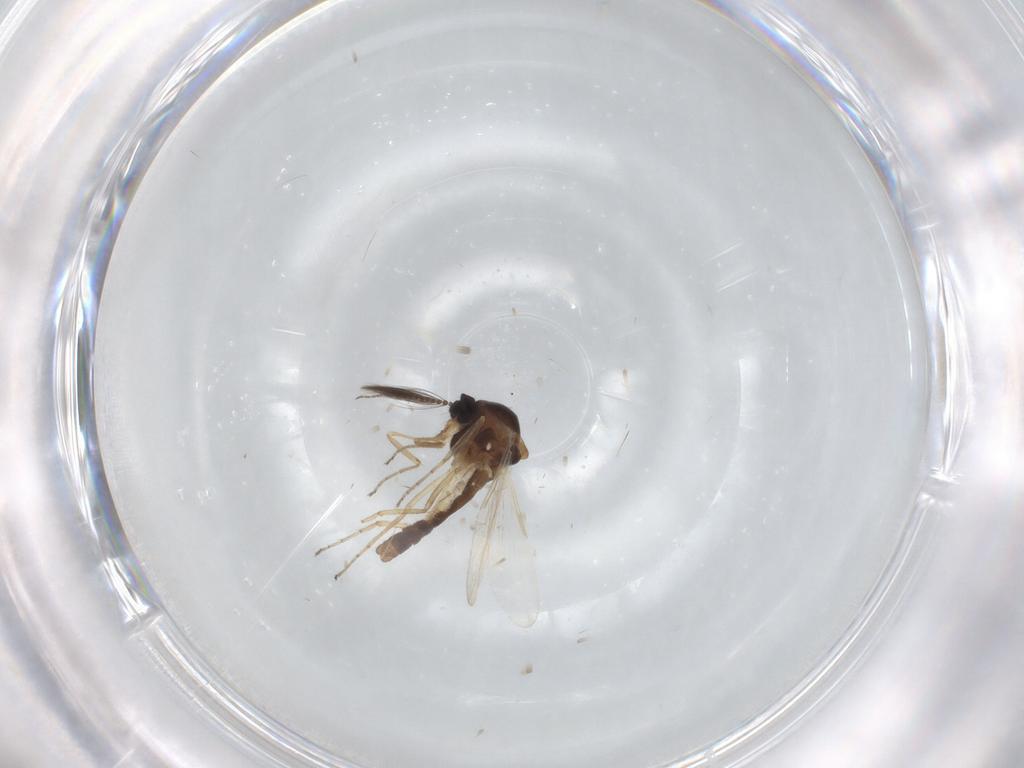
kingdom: Animalia
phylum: Arthropoda
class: Insecta
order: Diptera
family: Ceratopogonidae
